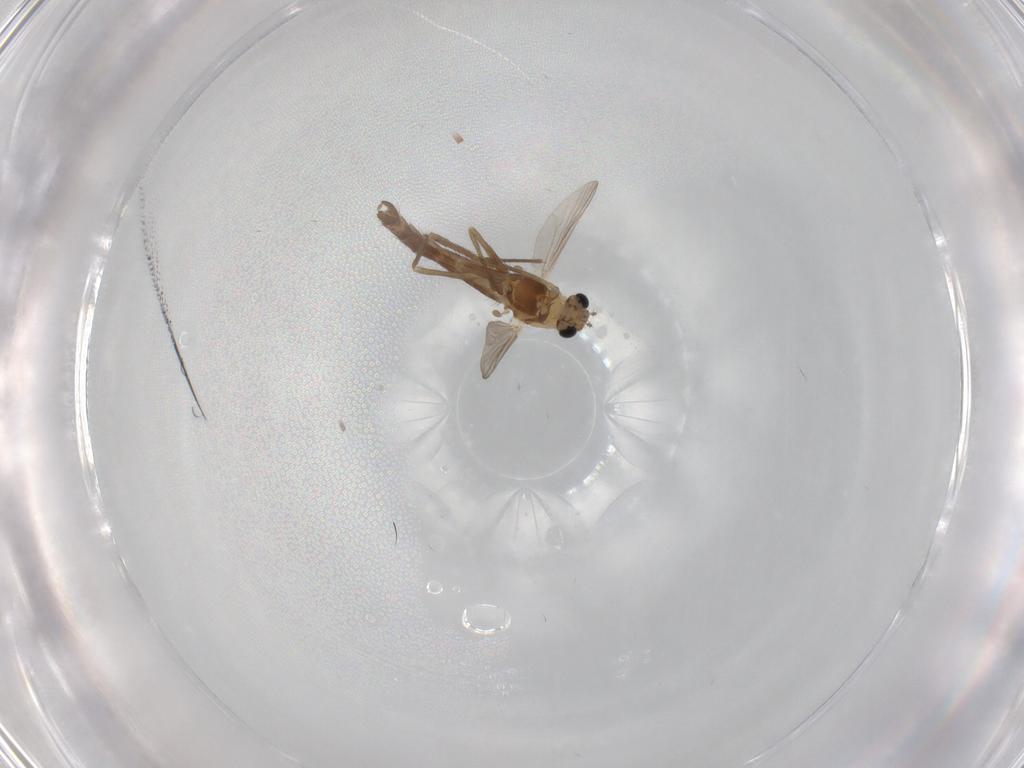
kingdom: Animalia
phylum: Arthropoda
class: Insecta
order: Diptera
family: Chironomidae
